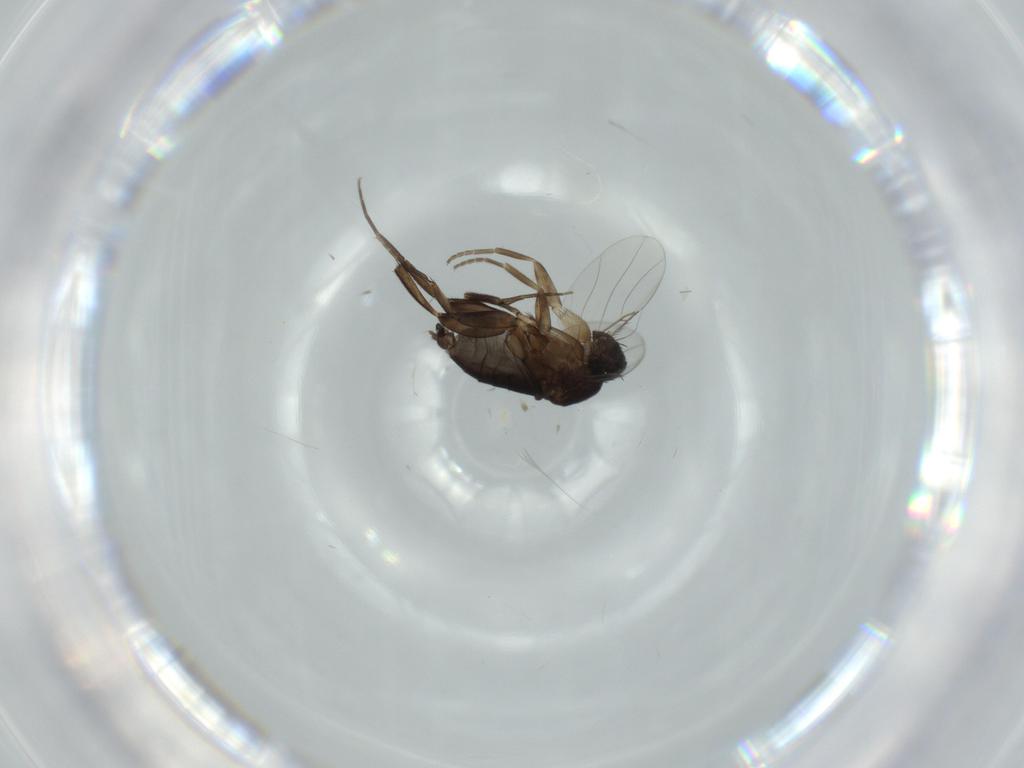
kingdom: Animalia
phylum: Arthropoda
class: Insecta
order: Diptera
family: Phoridae
